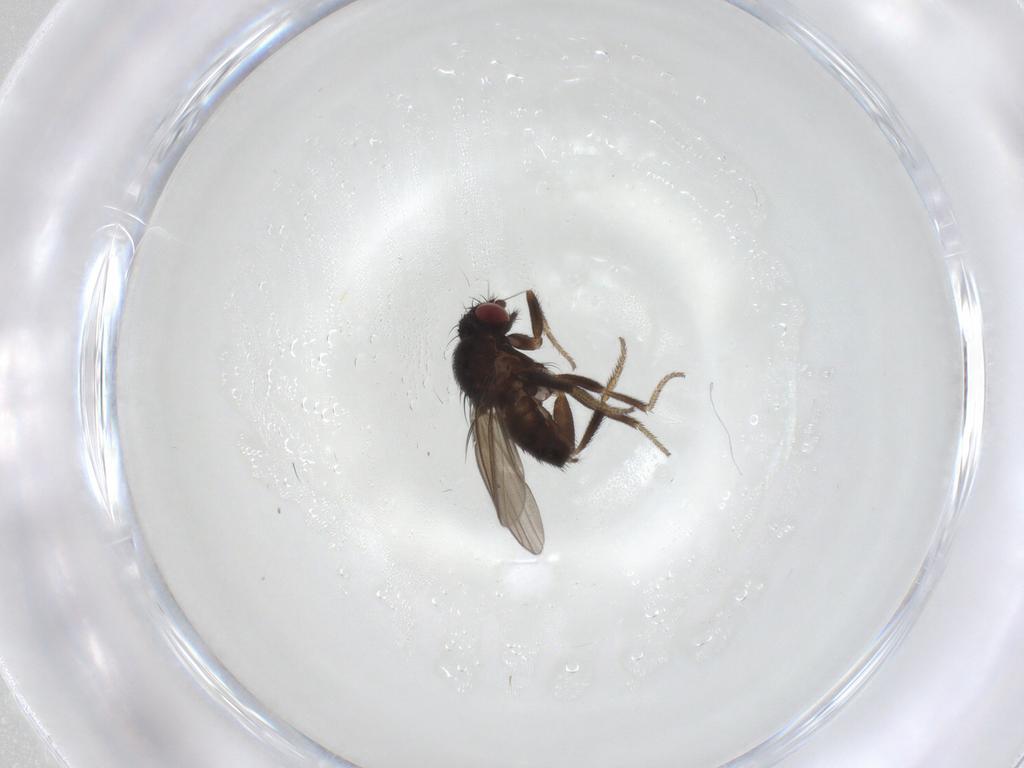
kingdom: Animalia
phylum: Arthropoda
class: Insecta
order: Diptera
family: Milichiidae
